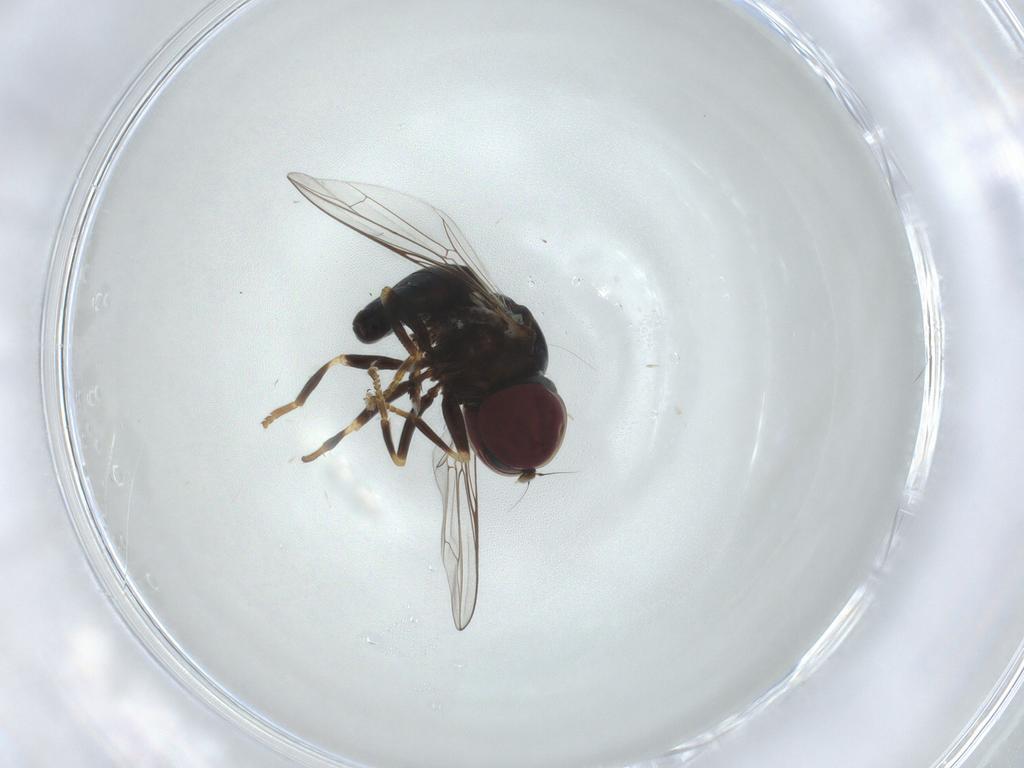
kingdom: Animalia
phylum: Arthropoda
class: Insecta
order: Diptera
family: Pipunculidae
